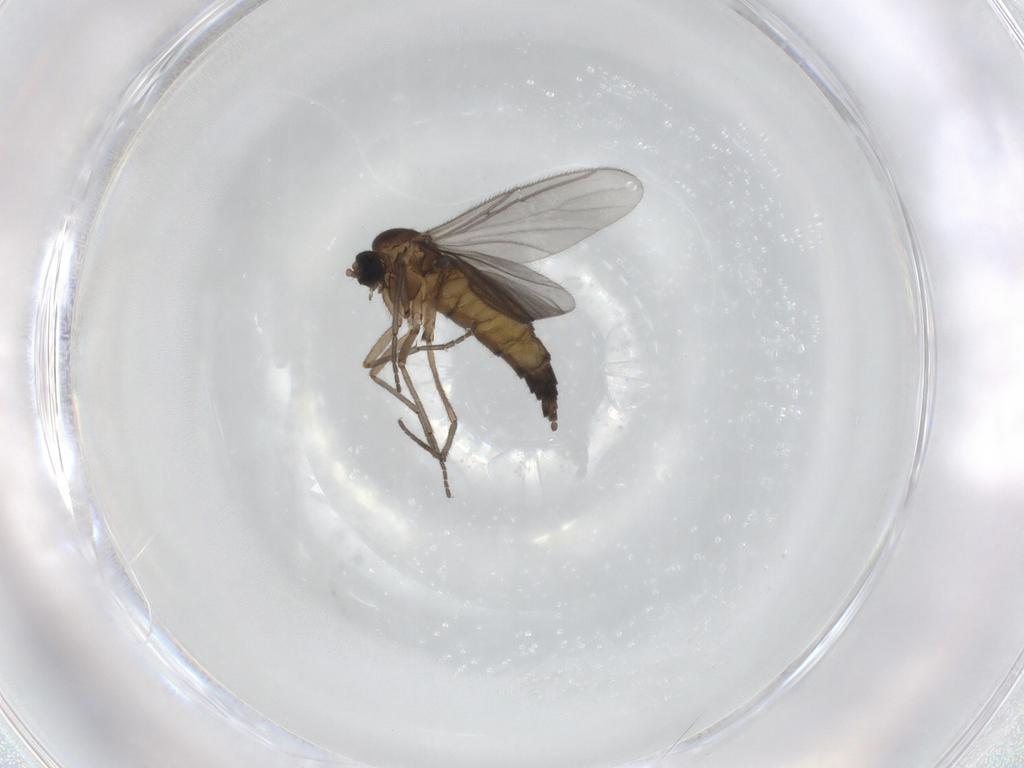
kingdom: Animalia
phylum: Arthropoda
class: Insecta
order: Diptera
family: Sciaridae
